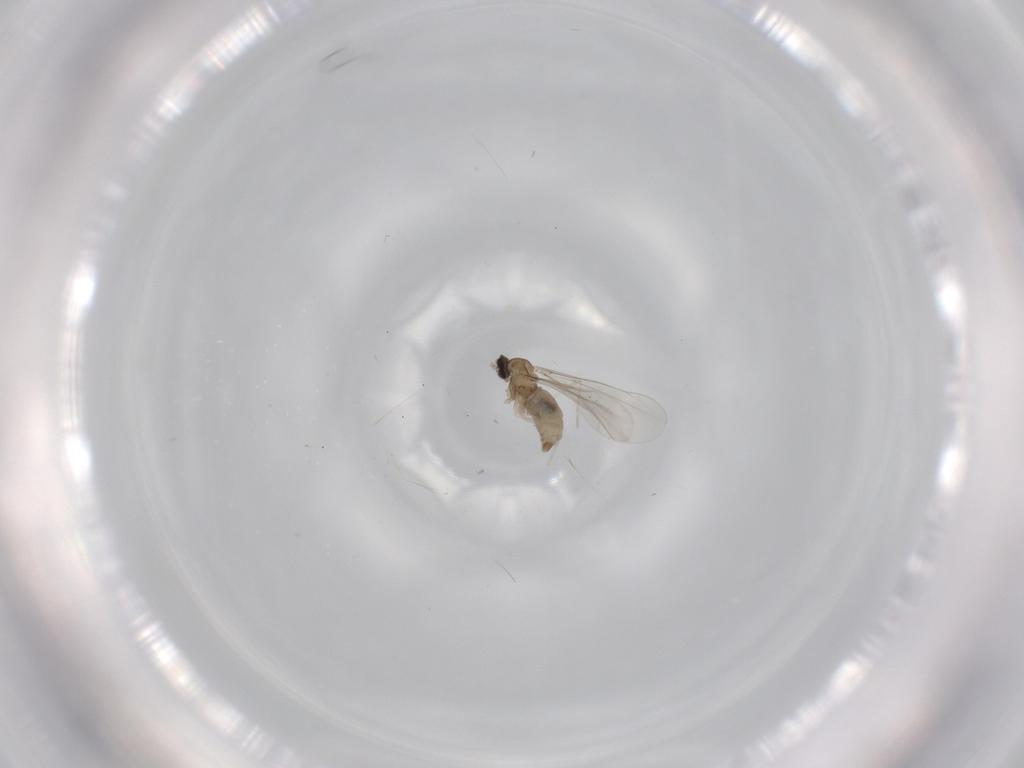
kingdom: Animalia
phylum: Arthropoda
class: Insecta
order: Diptera
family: Cecidomyiidae
